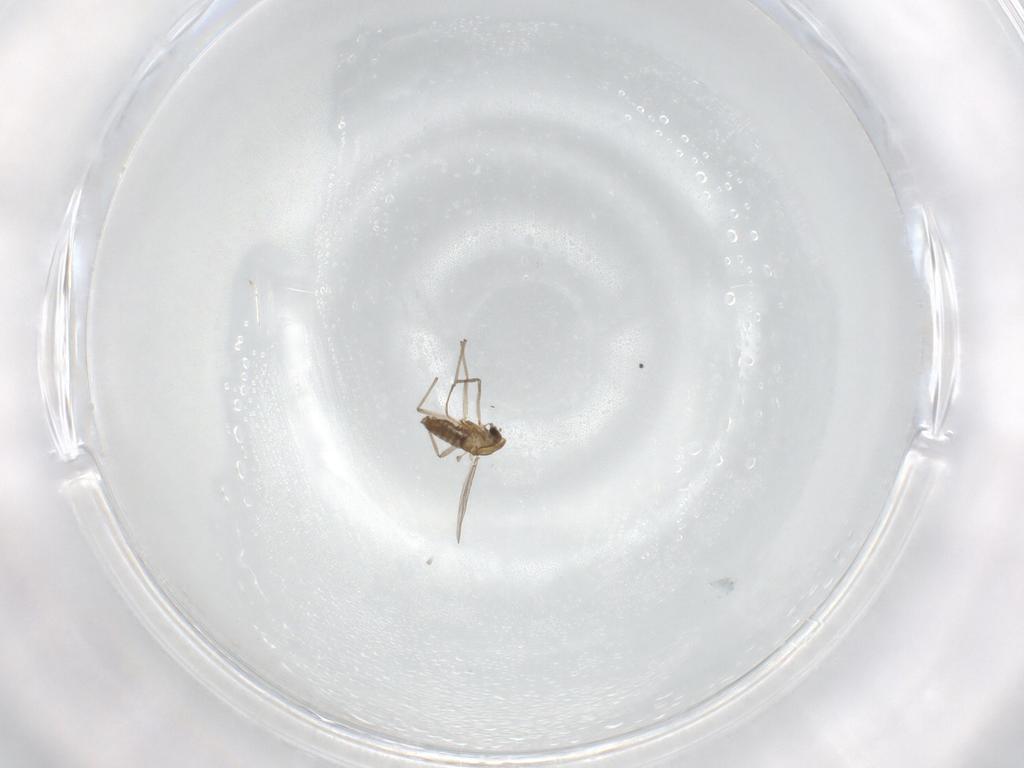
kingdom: Animalia
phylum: Arthropoda
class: Insecta
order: Diptera
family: Chironomidae
